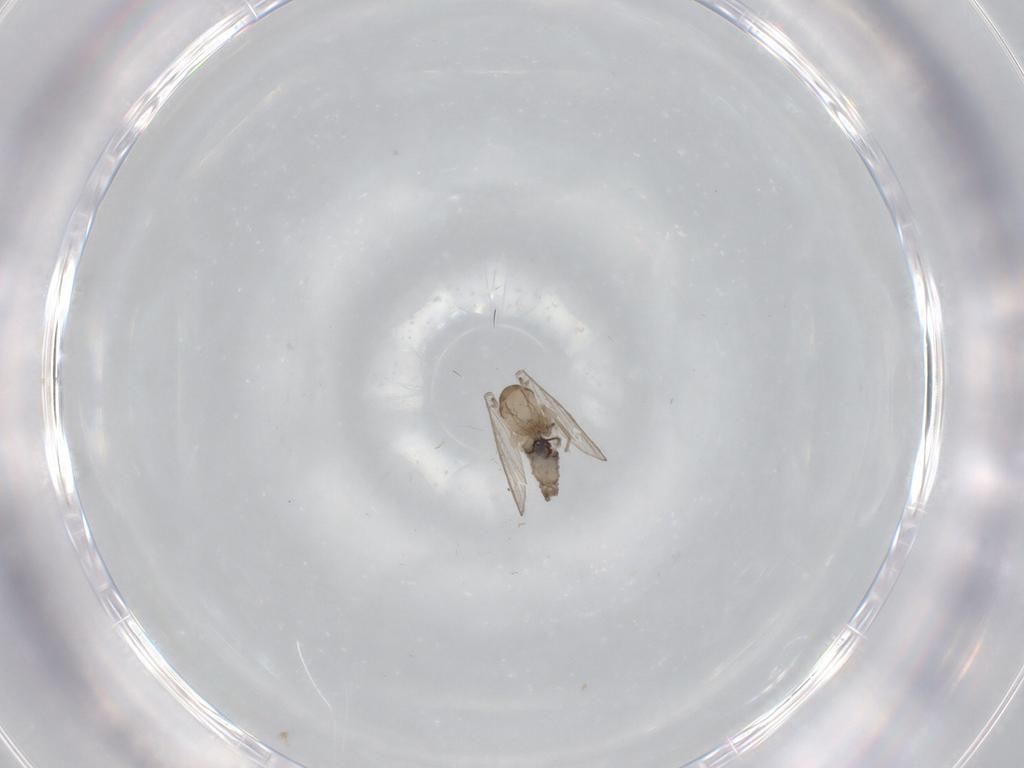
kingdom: Animalia
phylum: Arthropoda
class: Insecta
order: Diptera
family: Psychodidae
